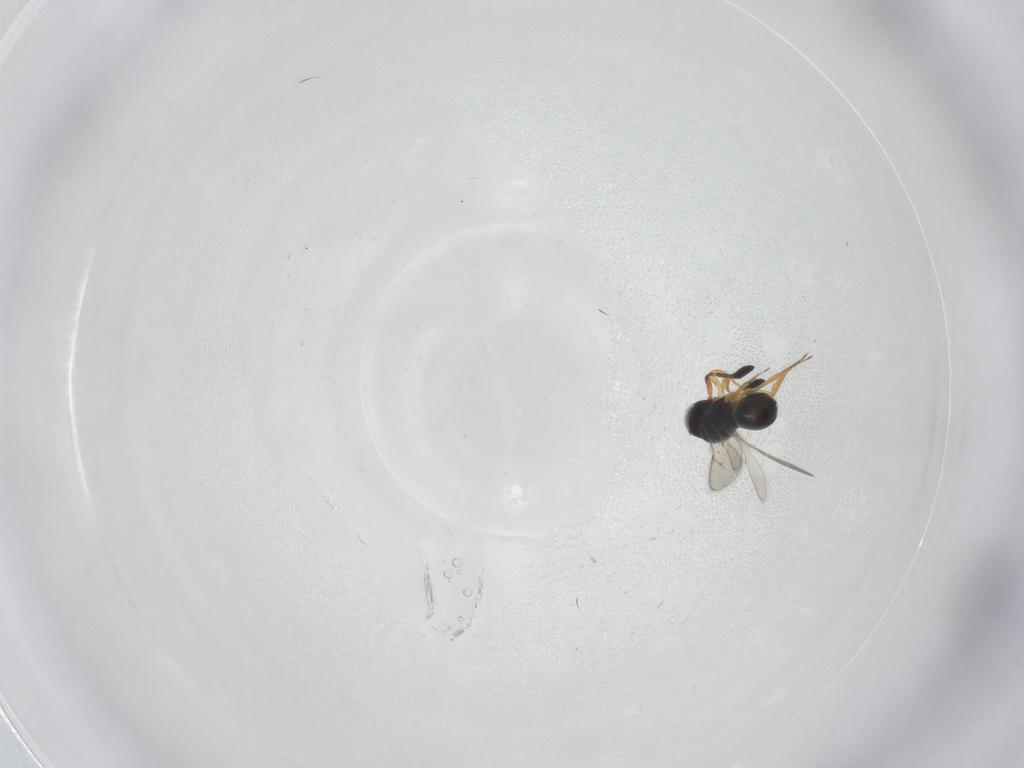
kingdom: Animalia
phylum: Arthropoda
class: Insecta
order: Hymenoptera
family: Scelionidae
